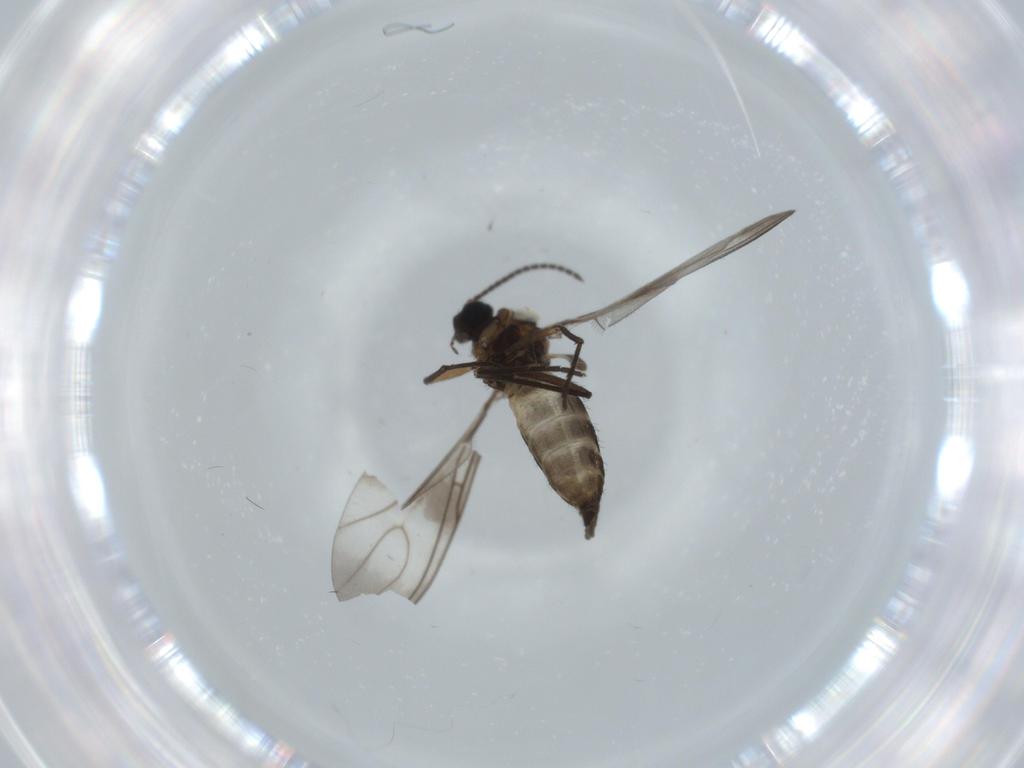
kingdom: Animalia
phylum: Arthropoda
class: Insecta
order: Diptera
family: Sciaridae
